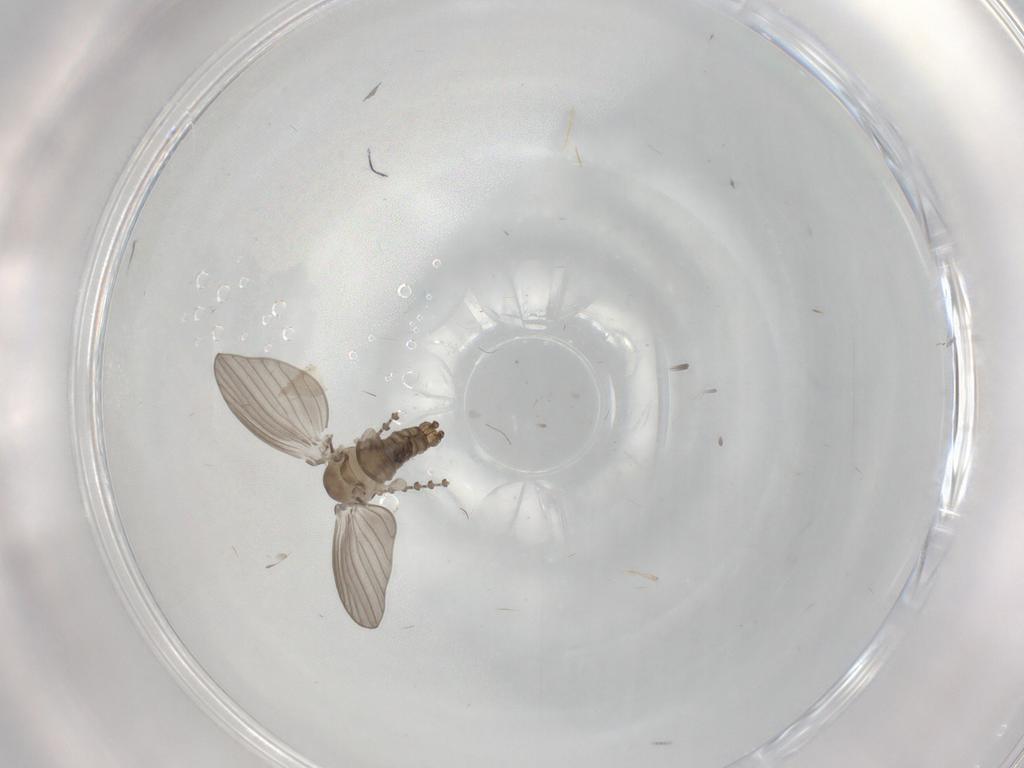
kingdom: Animalia
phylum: Arthropoda
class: Insecta
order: Diptera
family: Psychodidae
